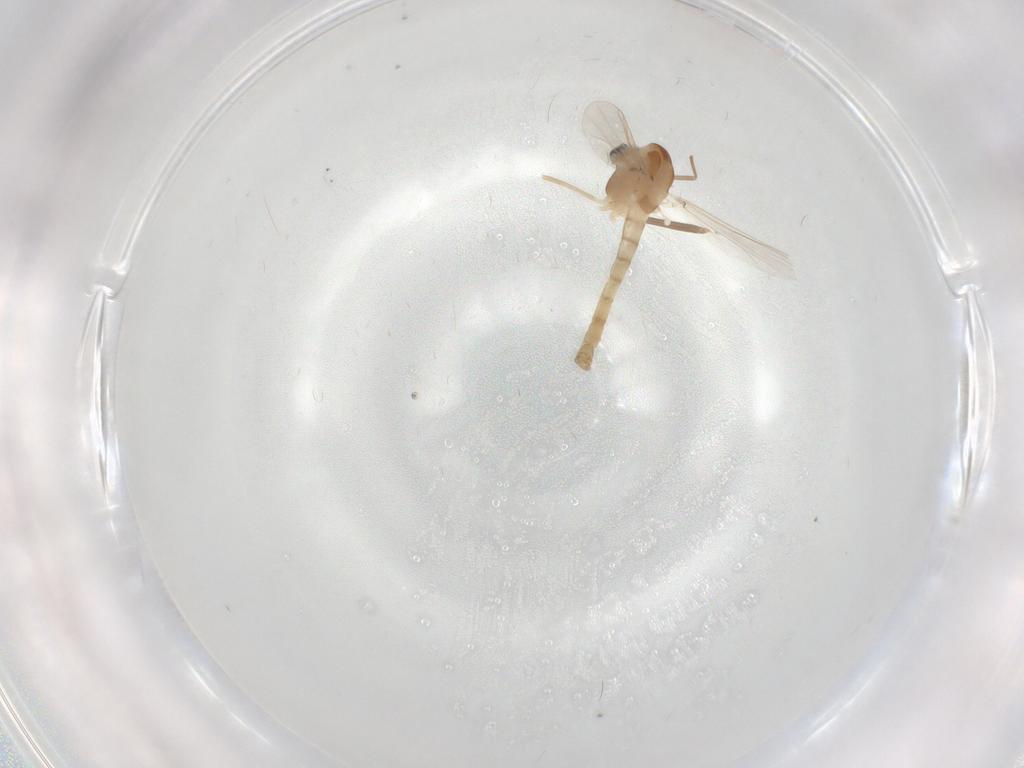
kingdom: Animalia
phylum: Arthropoda
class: Insecta
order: Diptera
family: Chironomidae
